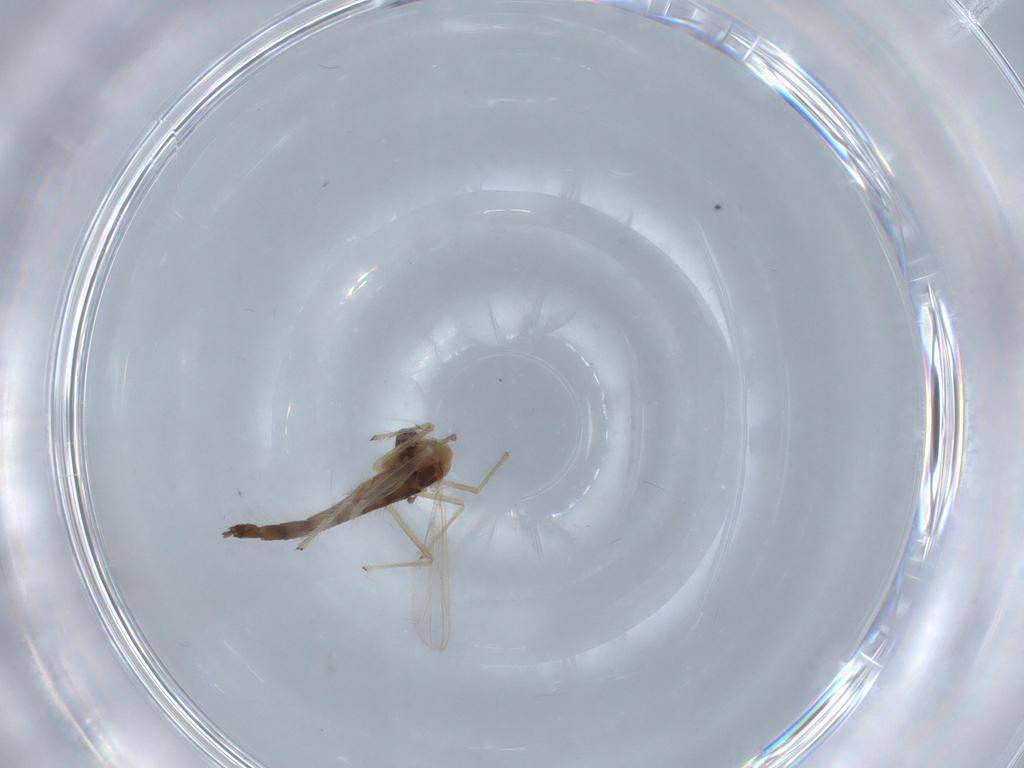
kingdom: Animalia
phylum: Arthropoda
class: Insecta
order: Diptera
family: Chironomidae
